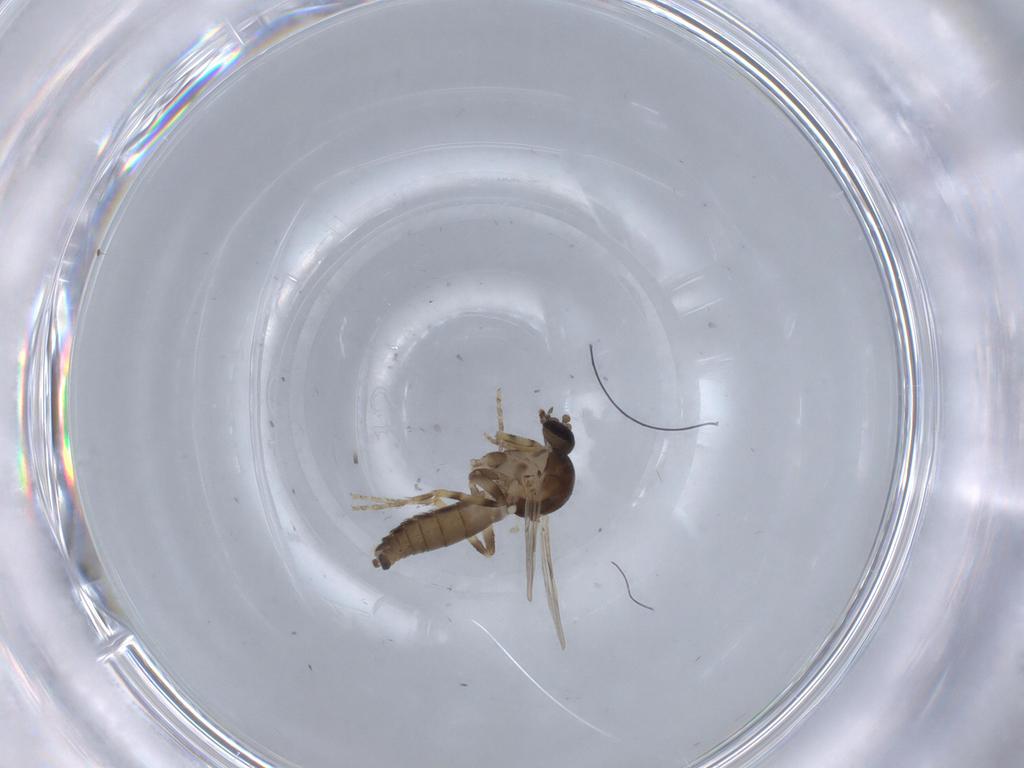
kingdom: Animalia
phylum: Arthropoda
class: Insecta
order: Diptera
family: Ceratopogonidae
